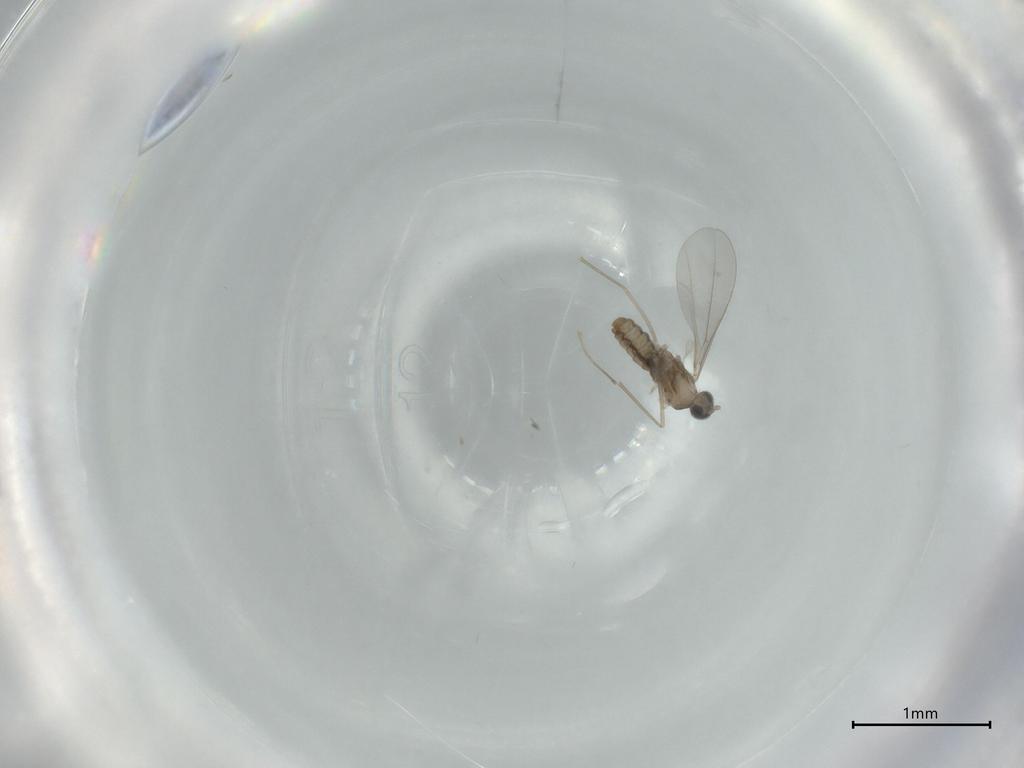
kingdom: Animalia
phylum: Arthropoda
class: Insecta
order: Diptera
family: Cecidomyiidae
